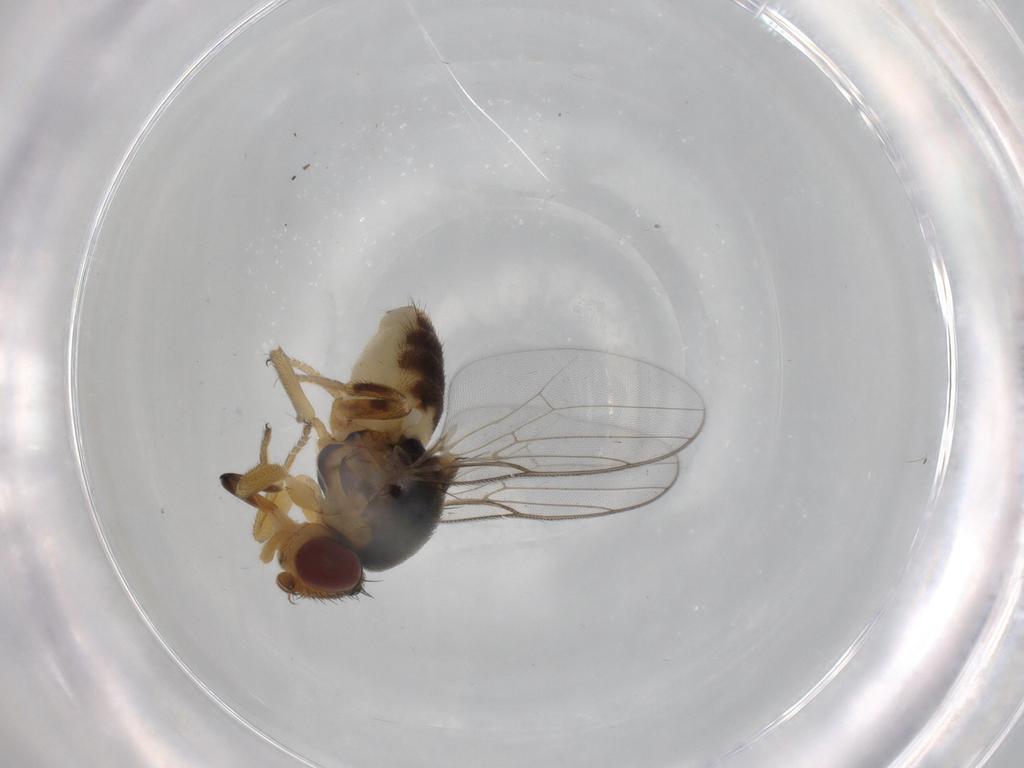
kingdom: Animalia
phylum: Arthropoda
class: Insecta
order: Diptera
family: Chloropidae
